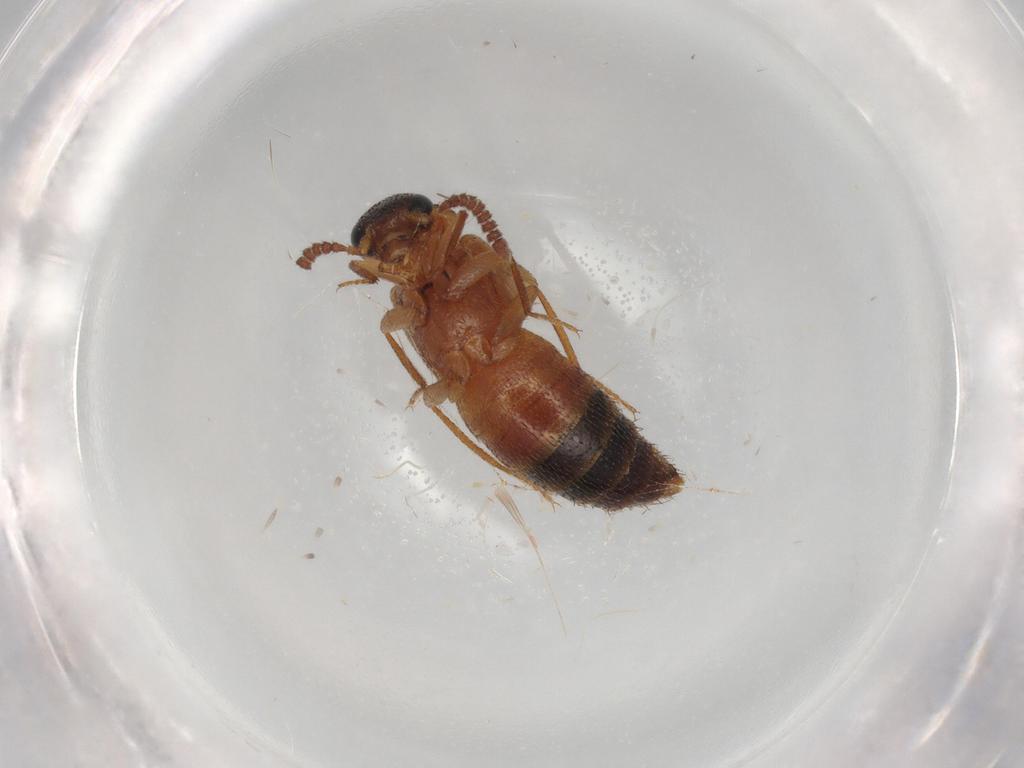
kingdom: Animalia
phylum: Arthropoda
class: Insecta
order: Coleoptera
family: Staphylinidae
